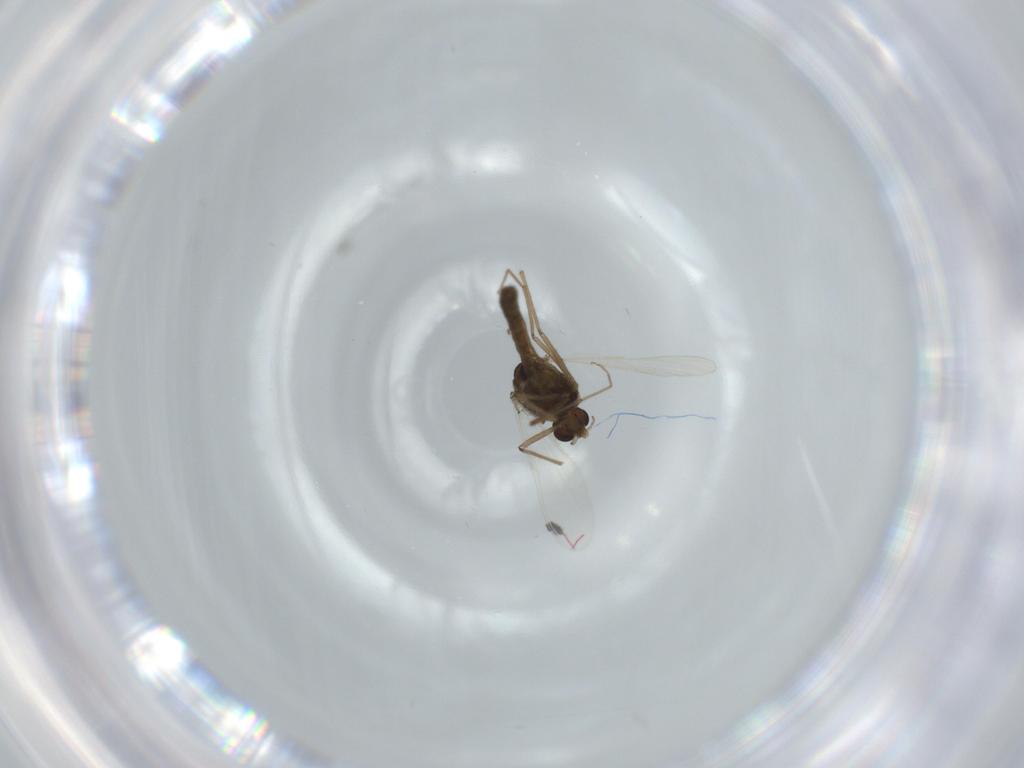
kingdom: Animalia
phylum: Arthropoda
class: Insecta
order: Diptera
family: Chironomidae
